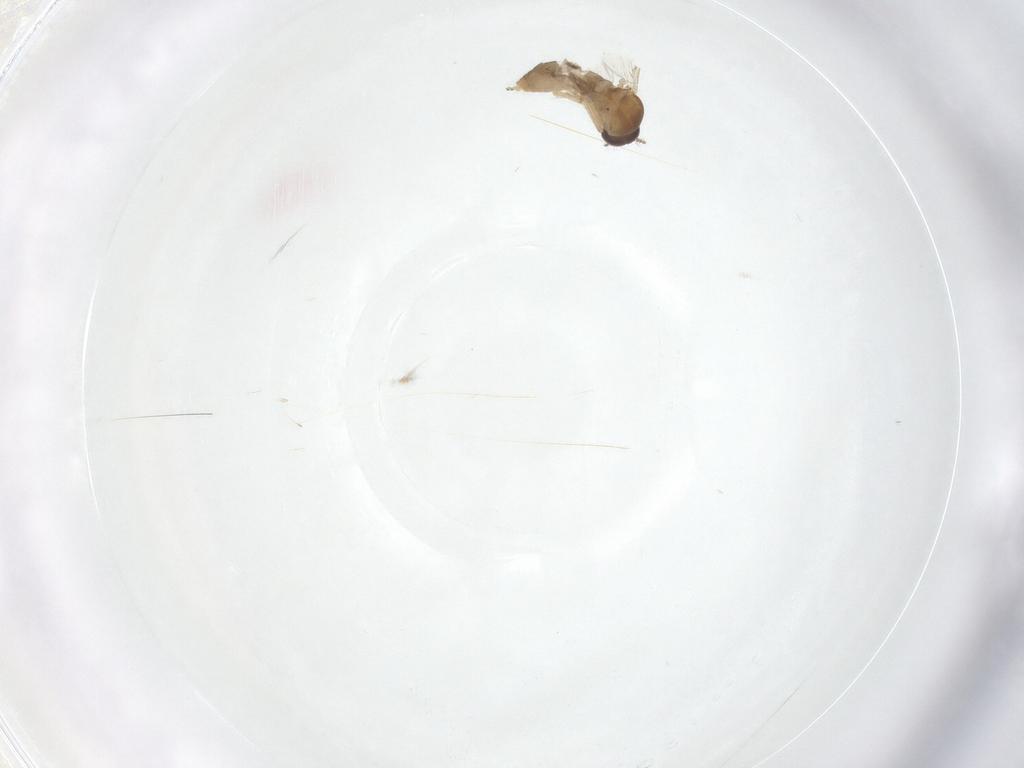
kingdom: Animalia
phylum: Arthropoda
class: Insecta
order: Diptera
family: Ceratopogonidae
